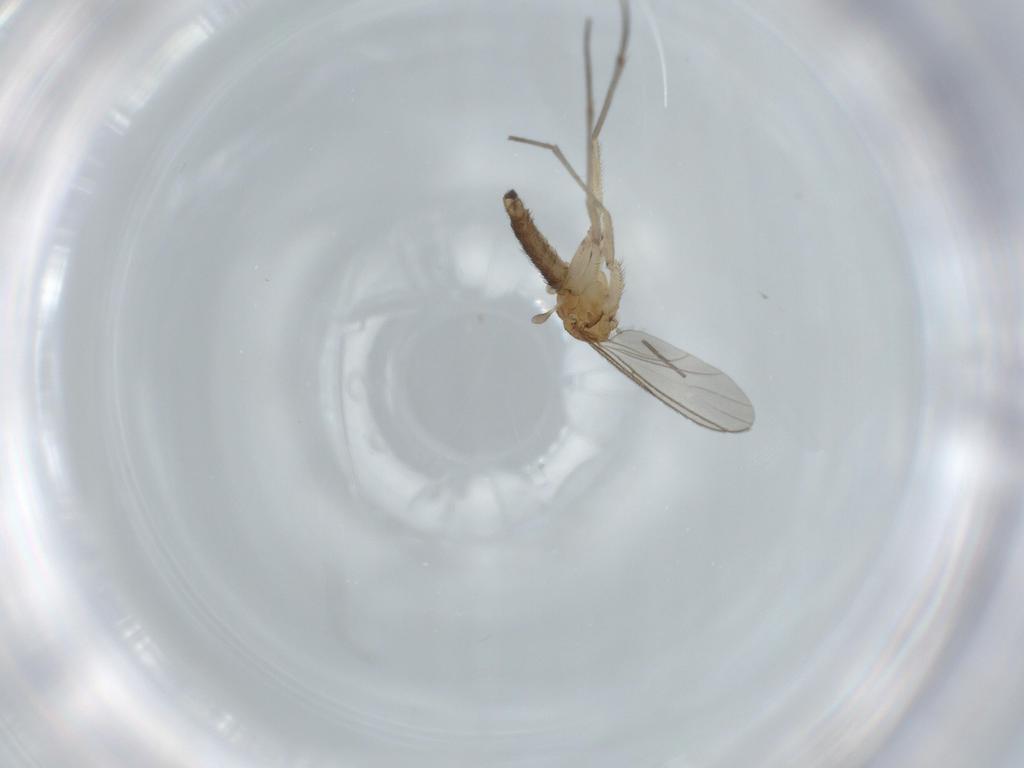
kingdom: Animalia
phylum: Arthropoda
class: Insecta
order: Diptera
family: Sciaridae
